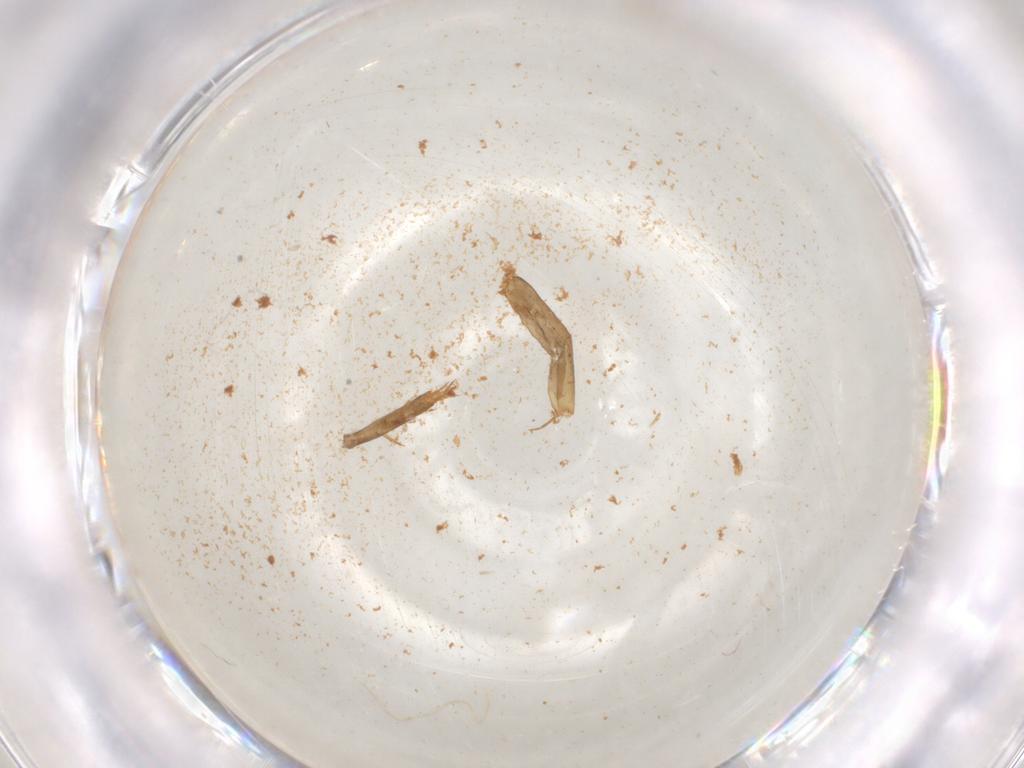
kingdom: Animalia
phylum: Arthropoda
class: Insecta
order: Blattodea
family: Ectobiidae
